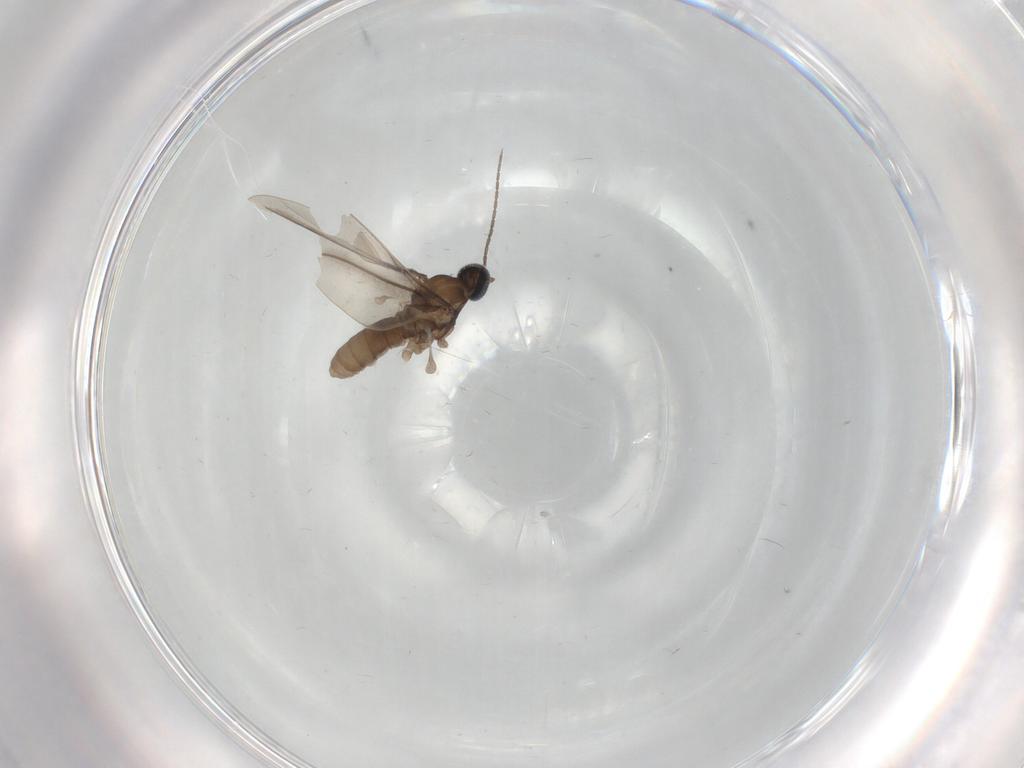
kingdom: Animalia
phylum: Arthropoda
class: Insecta
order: Diptera
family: Cecidomyiidae
